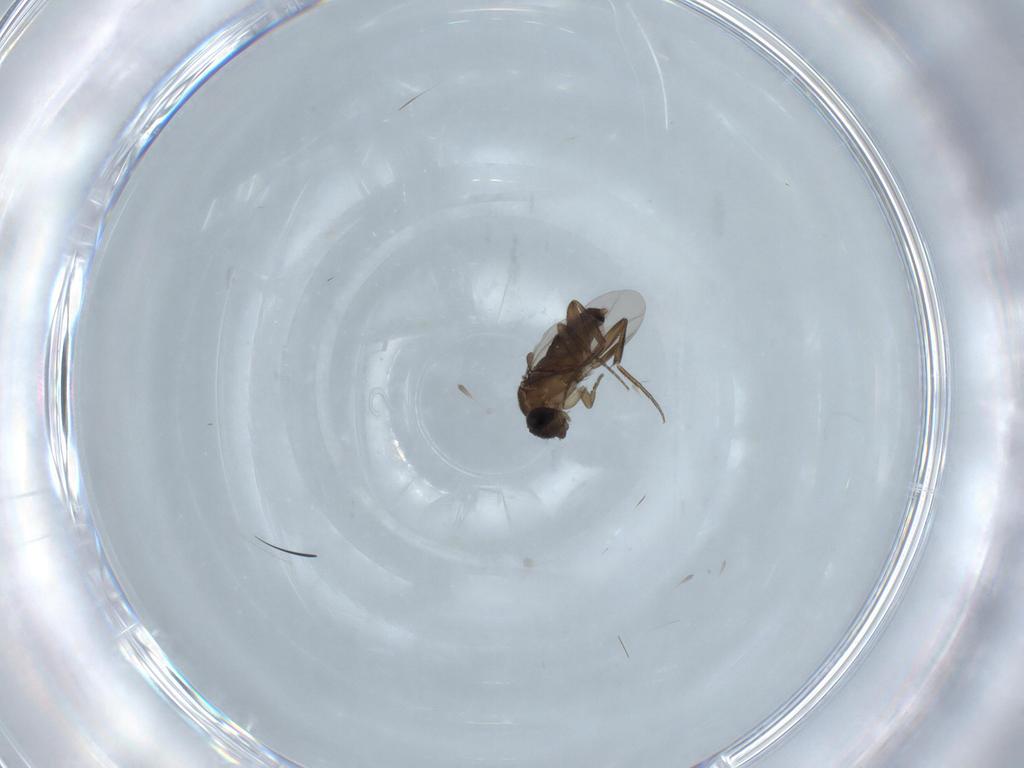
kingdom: Animalia
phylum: Arthropoda
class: Insecta
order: Diptera
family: Phoridae
